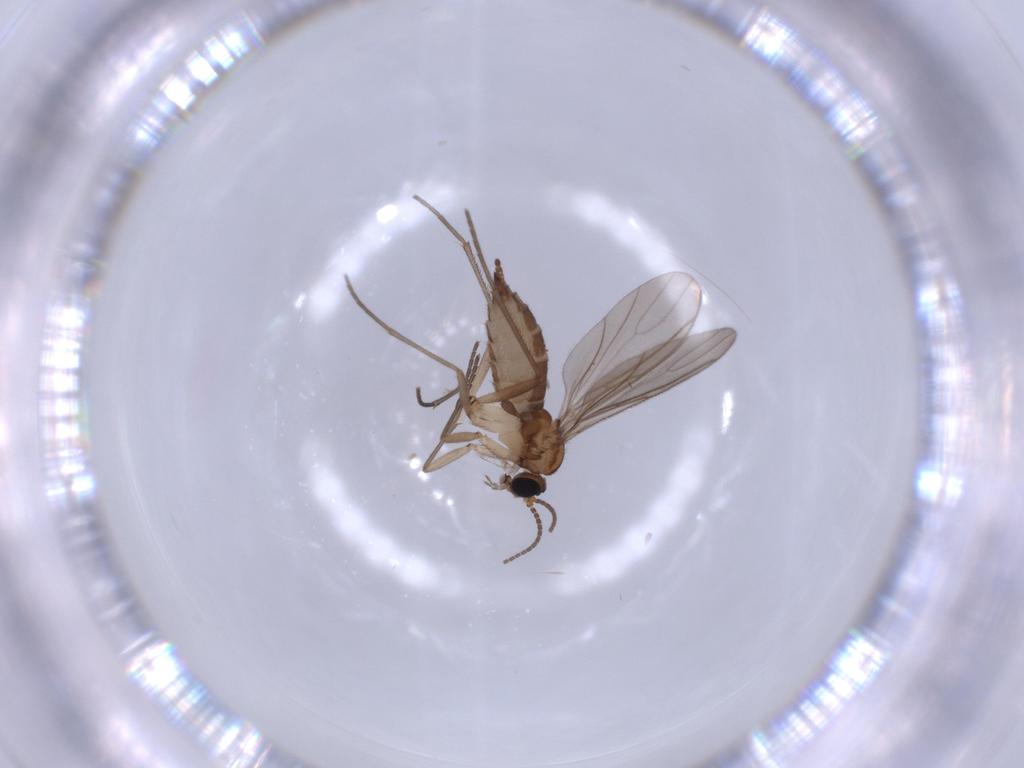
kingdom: Animalia
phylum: Arthropoda
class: Insecta
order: Diptera
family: Sciaridae
